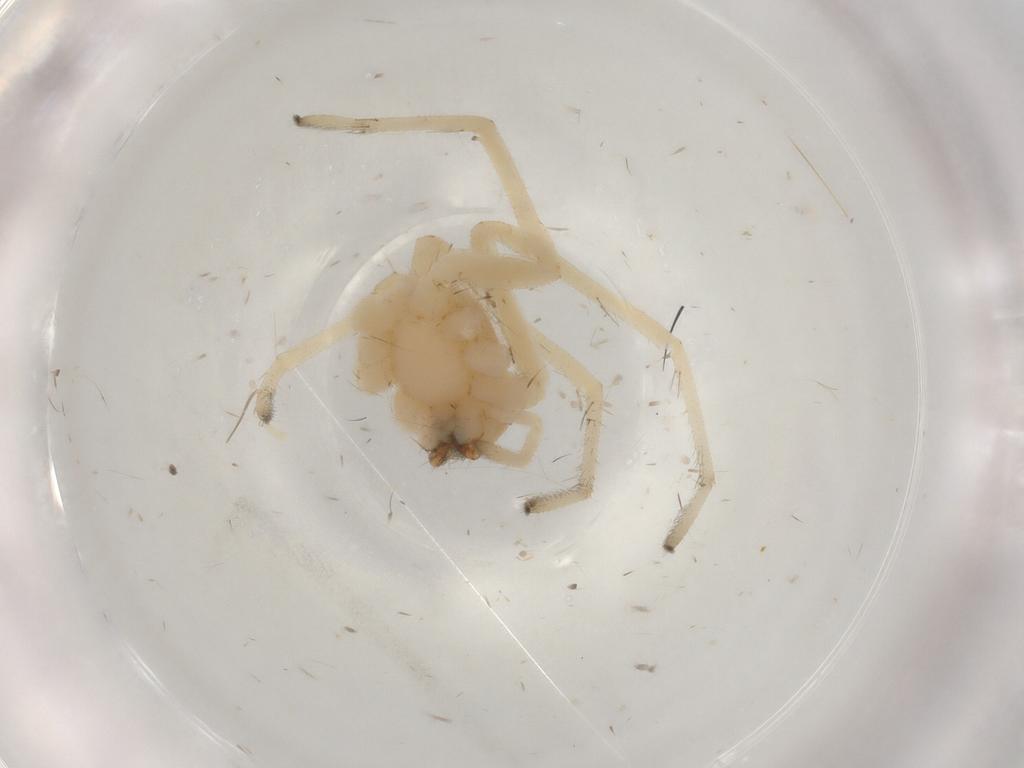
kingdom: Animalia
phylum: Arthropoda
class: Arachnida
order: Araneae
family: Cheiracanthiidae
